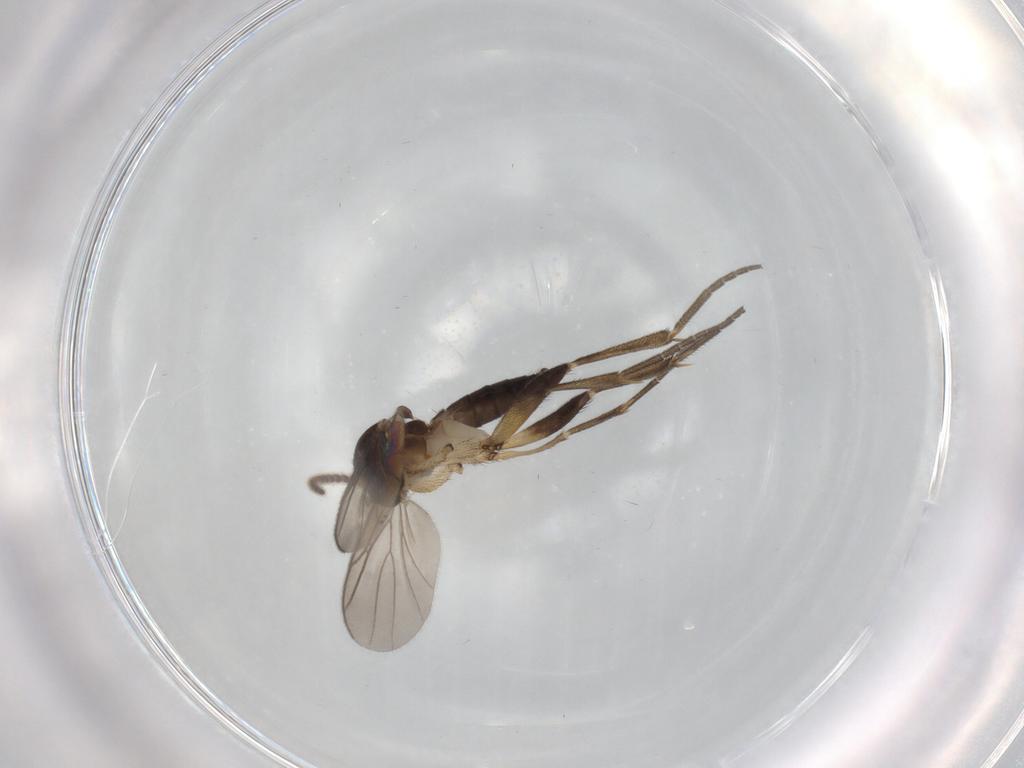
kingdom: Animalia
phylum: Arthropoda
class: Insecta
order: Diptera
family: Mycetophilidae
